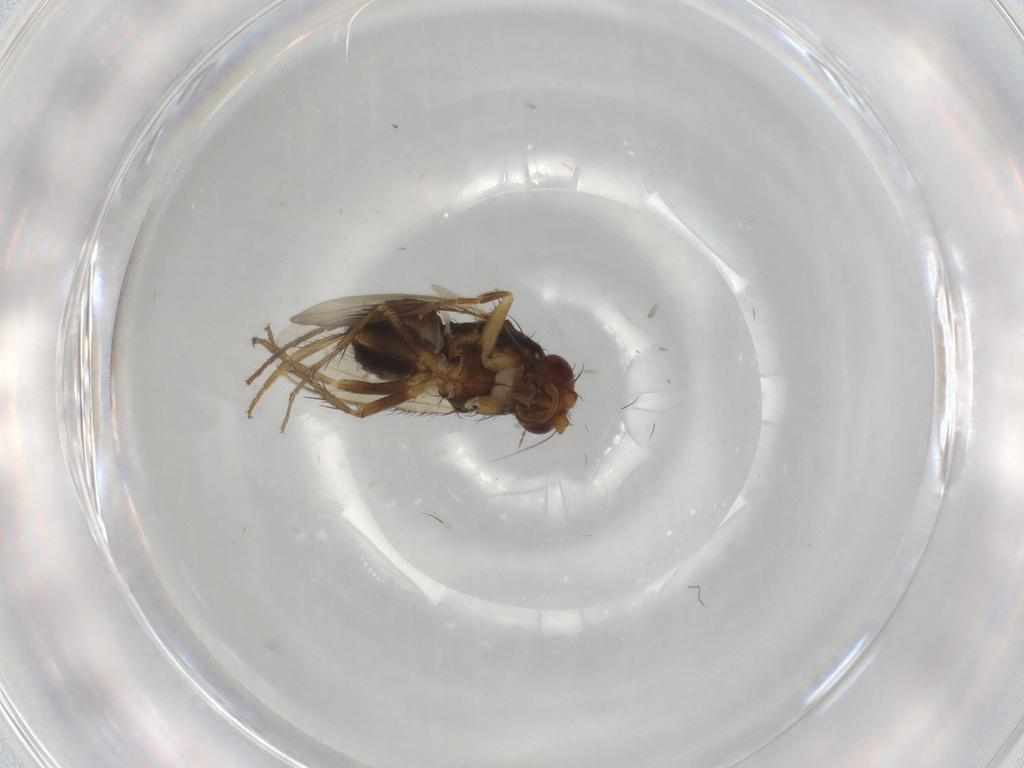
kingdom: Animalia
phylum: Arthropoda
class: Insecta
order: Diptera
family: Sphaeroceridae
